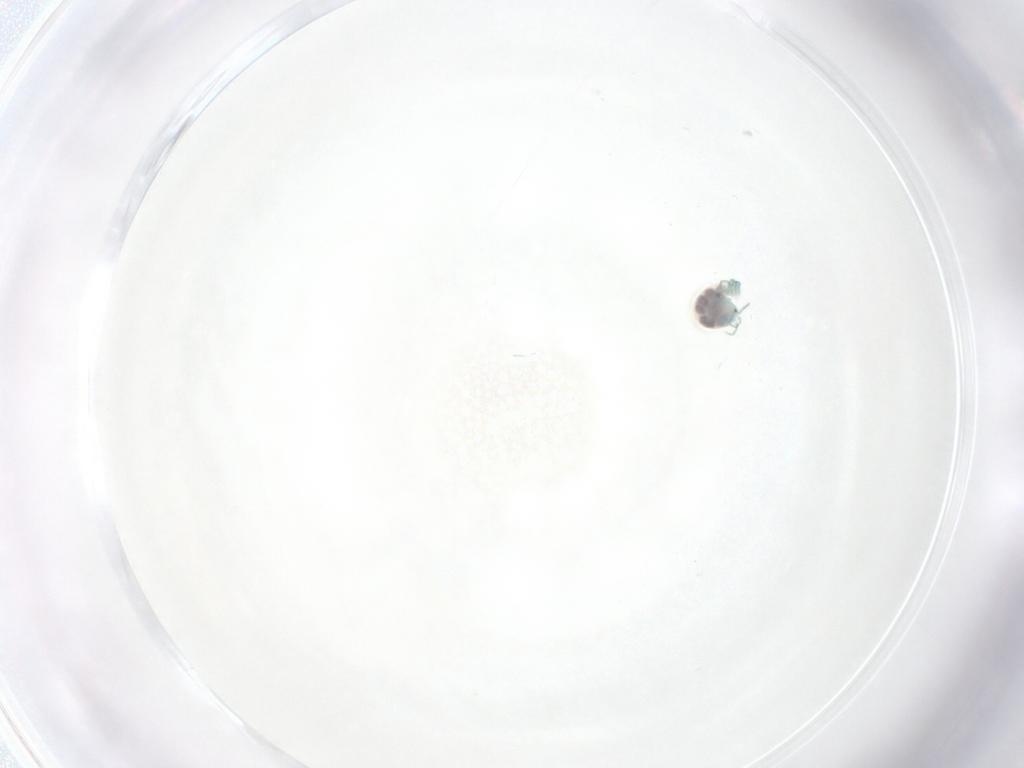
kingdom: Animalia
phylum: Arthropoda
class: Arachnida
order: Trombidiformes
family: Arrenuridae
